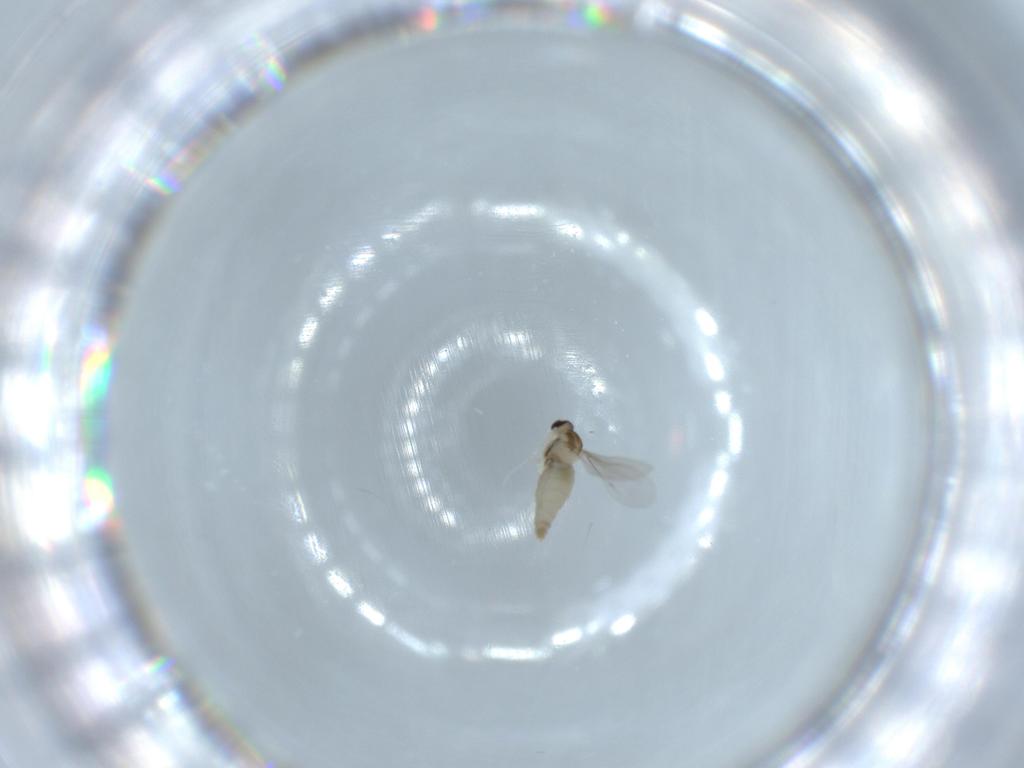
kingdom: Animalia
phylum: Arthropoda
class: Insecta
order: Diptera
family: Cecidomyiidae
